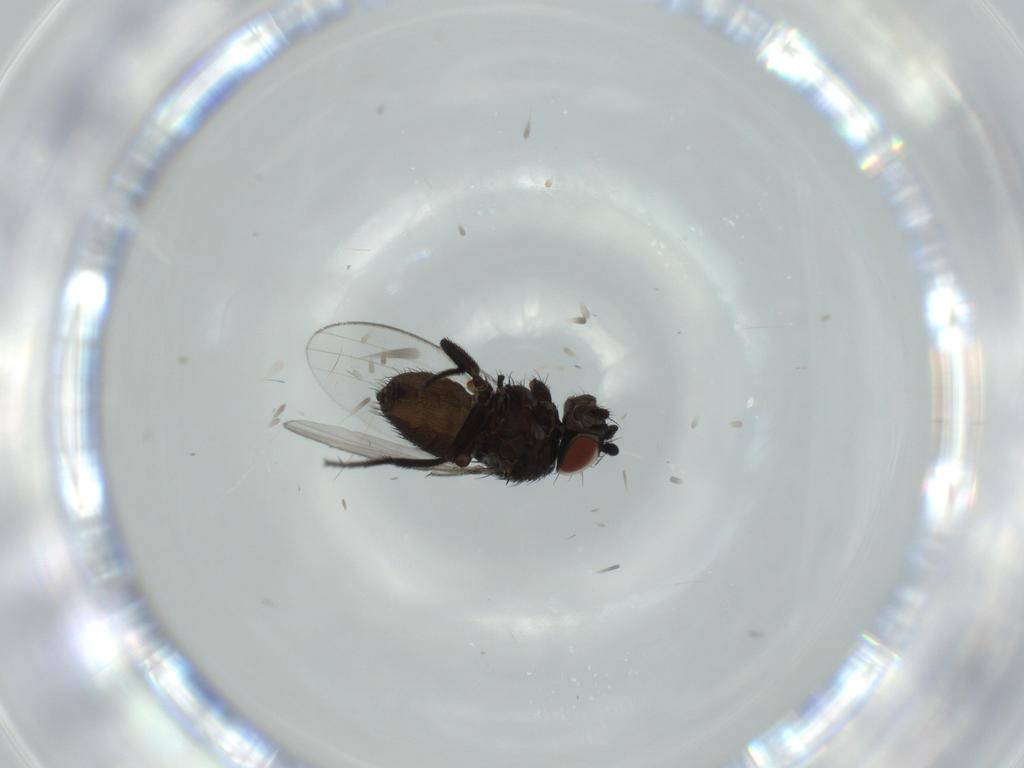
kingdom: Animalia
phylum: Arthropoda
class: Insecta
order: Diptera
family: Milichiidae
